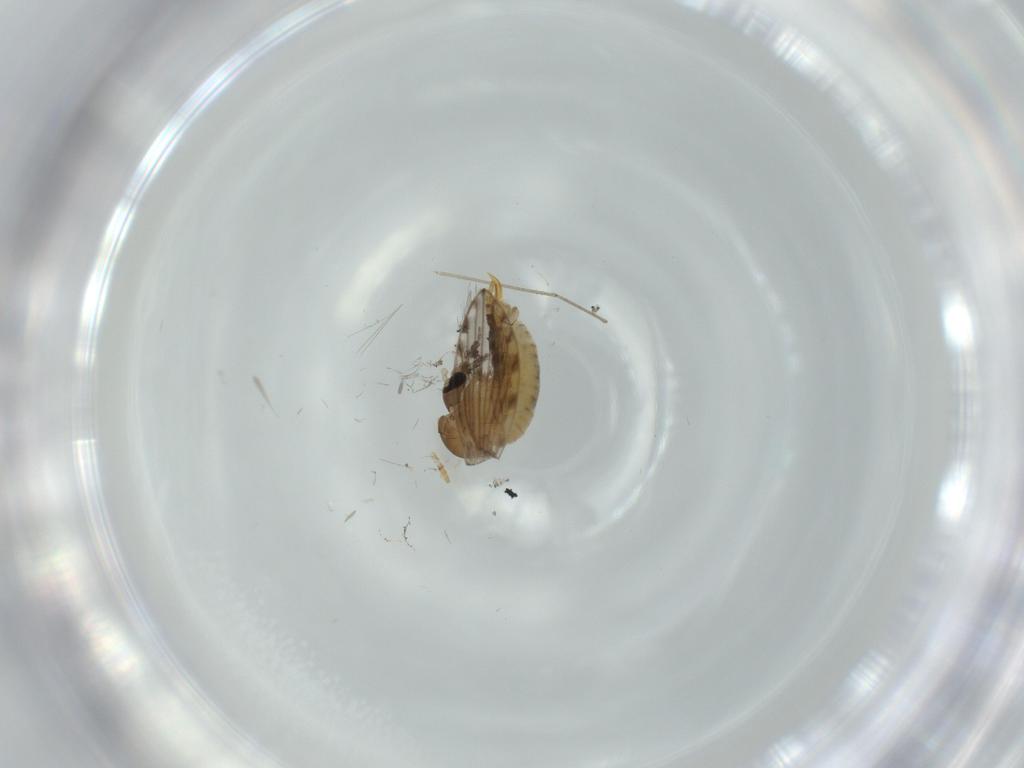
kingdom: Animalia
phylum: Arthropoda
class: Insecta
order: Diptera
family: Psychodidae
